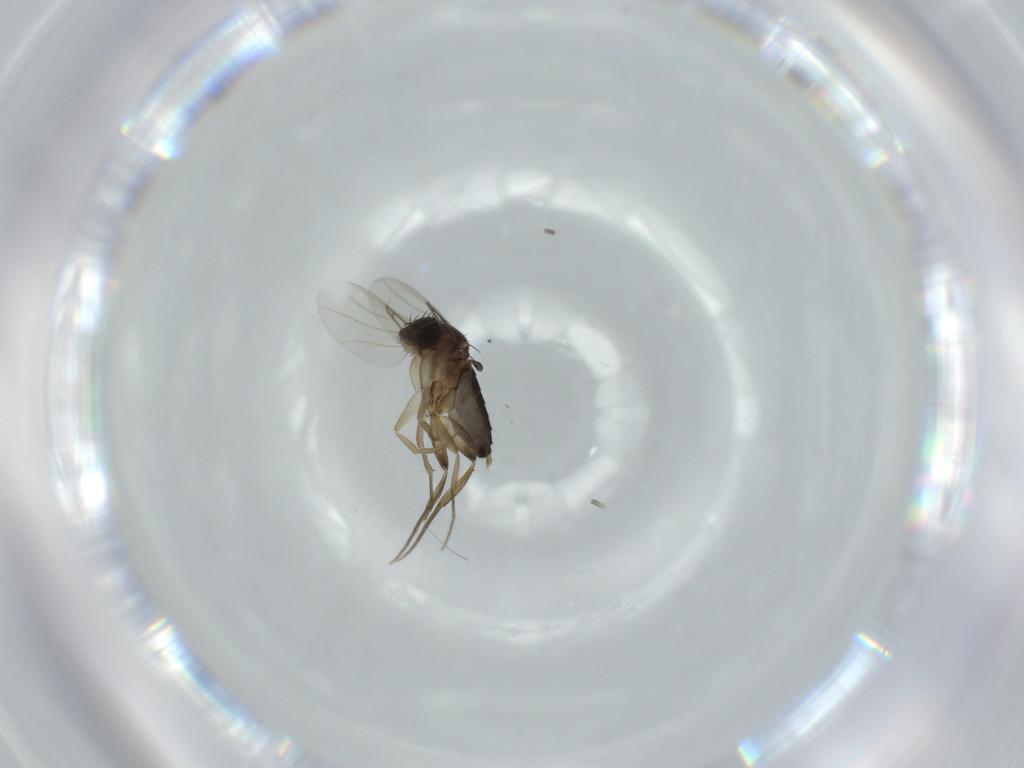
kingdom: Animalia
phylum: Arthropoda
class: Insecta
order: Diptera
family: Phoridae
